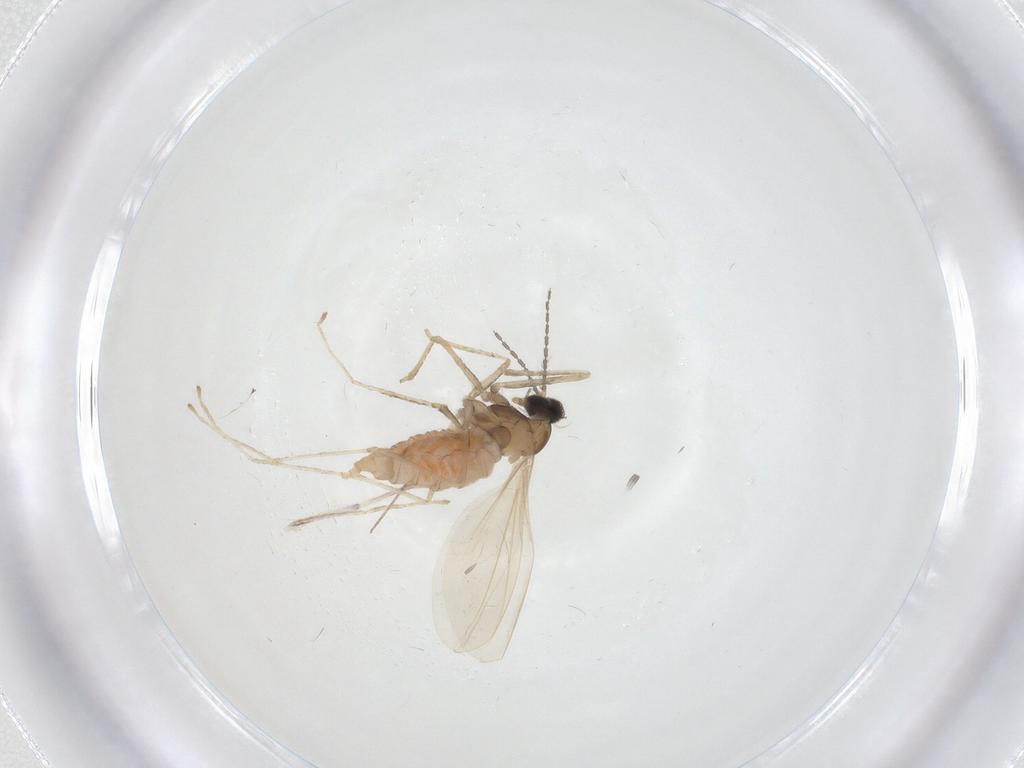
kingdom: Animalia
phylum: Arthropoda
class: Insecta
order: Diptera
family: Cecidomyiidae
